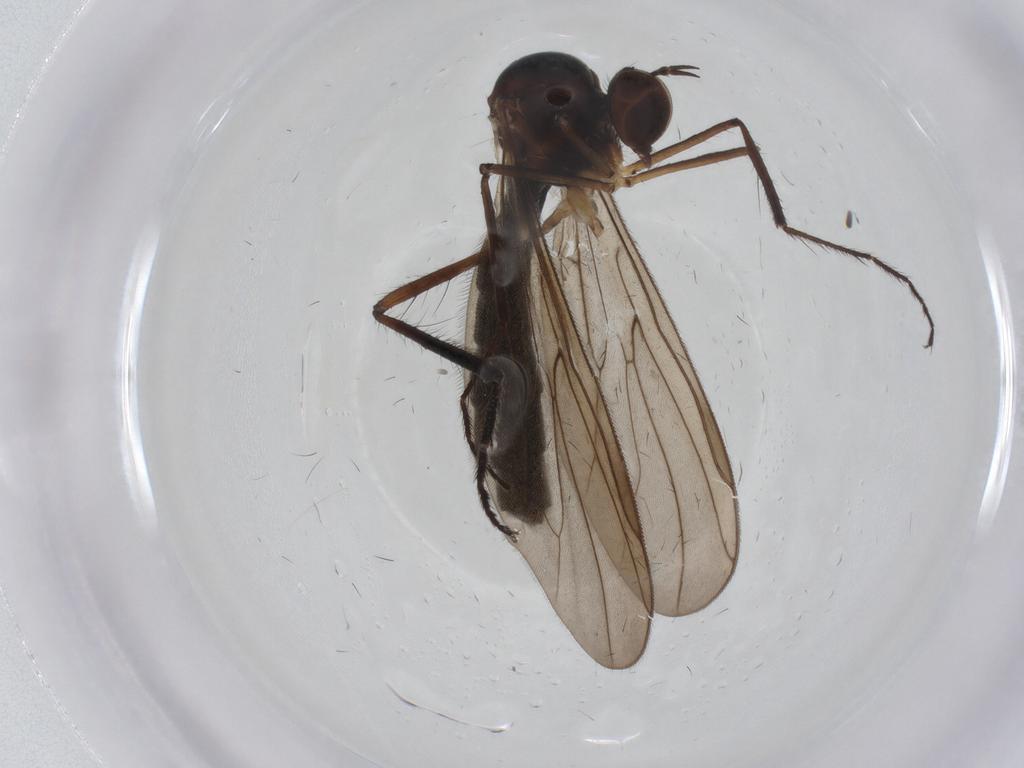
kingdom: Animalia
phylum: Arthropoda
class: Insecta
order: Diptera
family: Hybotidae
